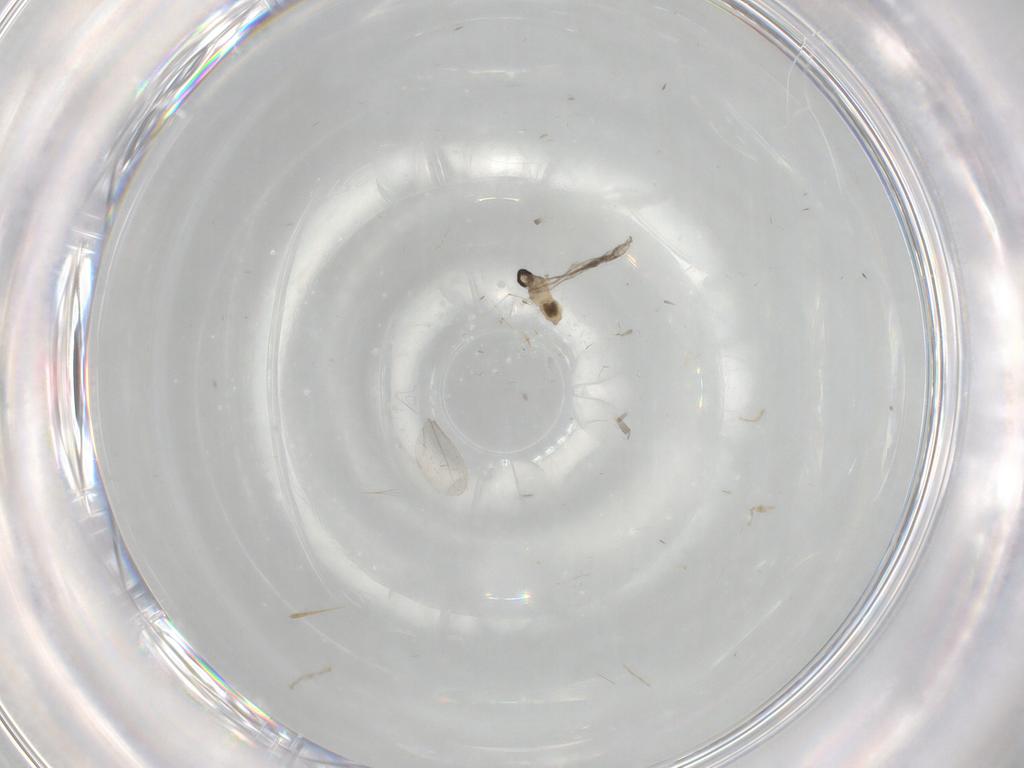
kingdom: Animalia
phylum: Arthropoda
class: Insecta
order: Diptera
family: Cecidomyiidae
